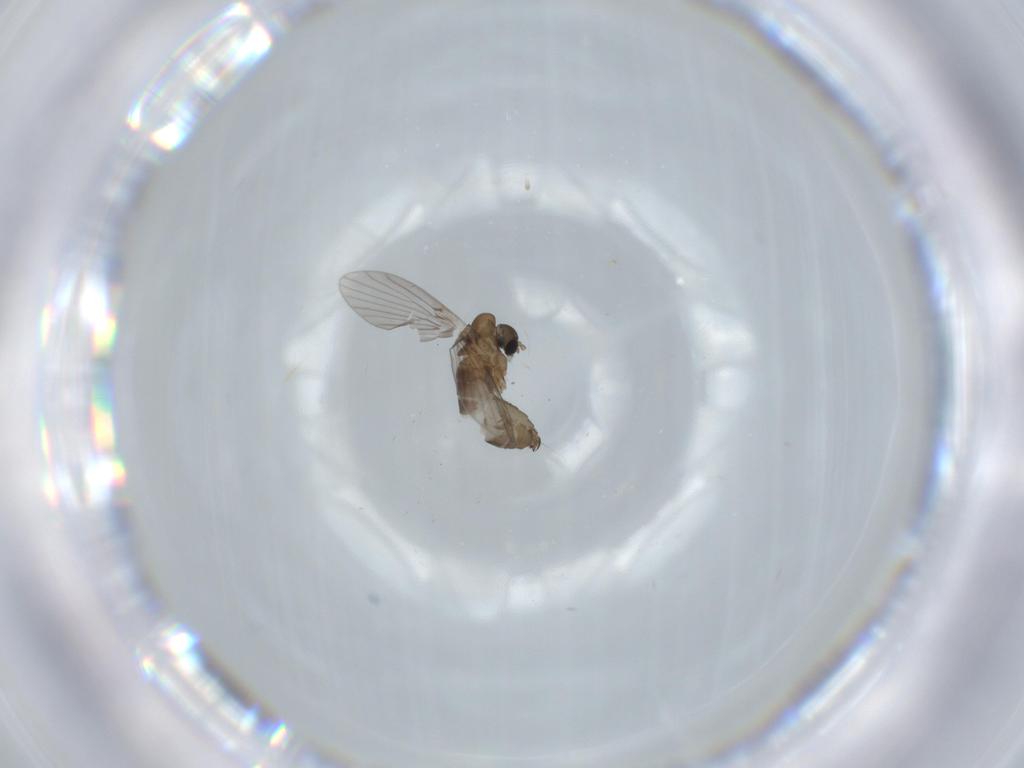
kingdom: Animalia
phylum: Arthropoda
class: Insecta
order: Diptera
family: Psychodidae
